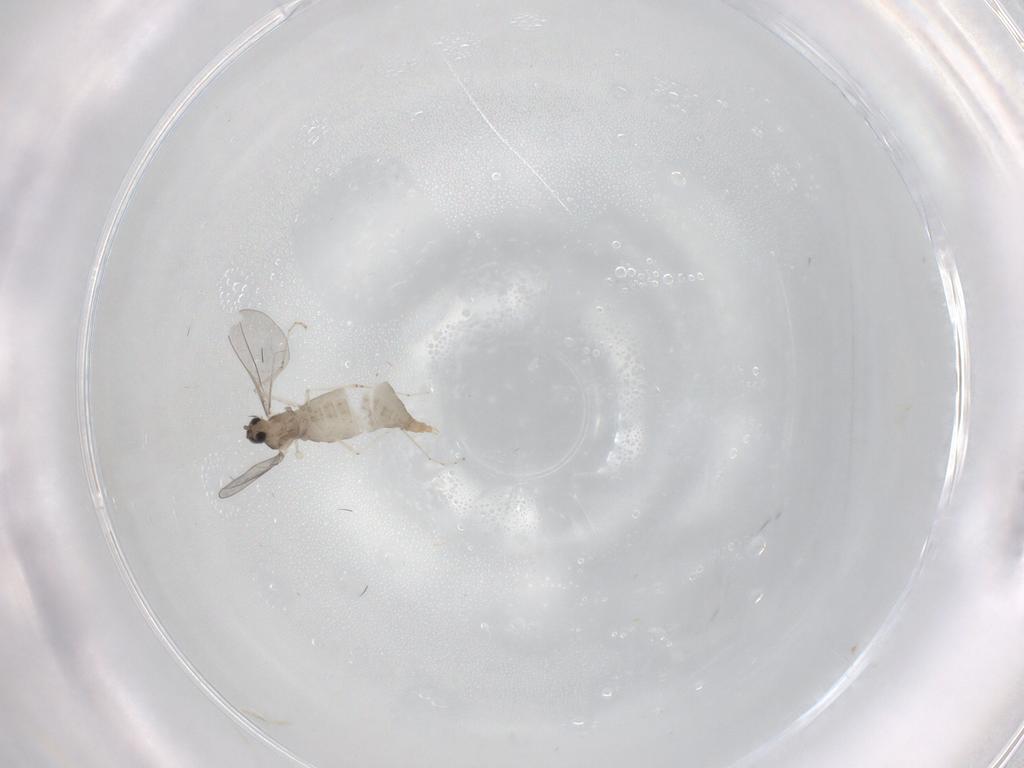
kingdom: Animalia
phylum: Arthropoda
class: Insecta
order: Diptera
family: Cecidomyiidae
